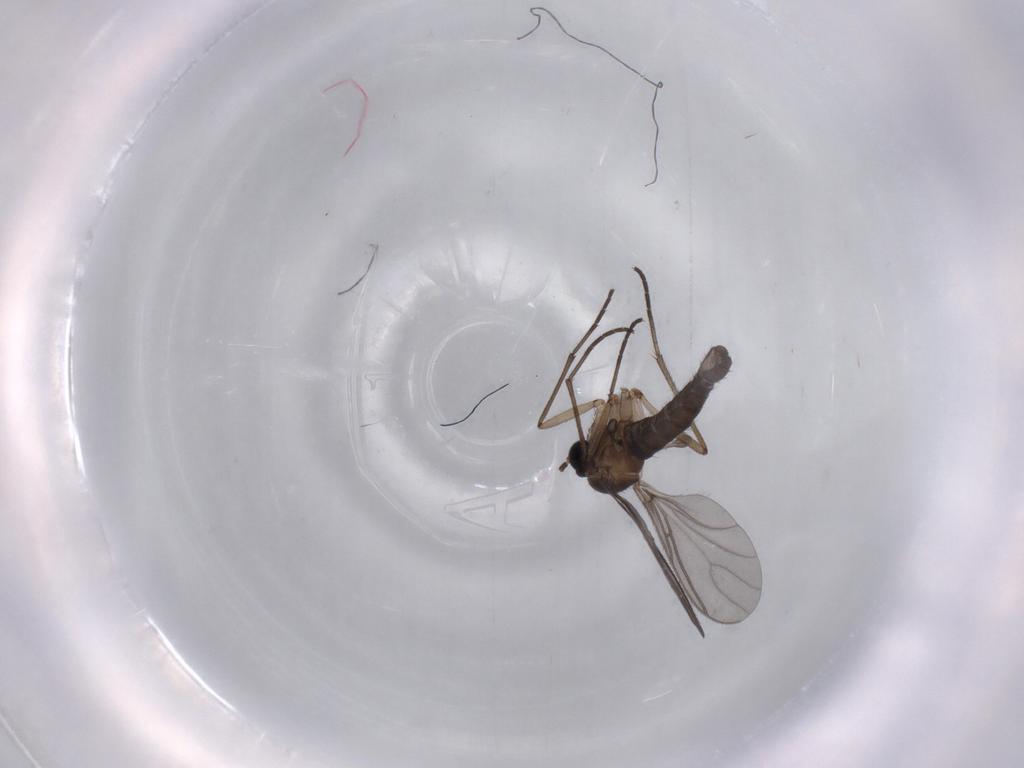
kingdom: Animalia
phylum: Arthropoda
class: Insecta
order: Diptera
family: Sciaridae
